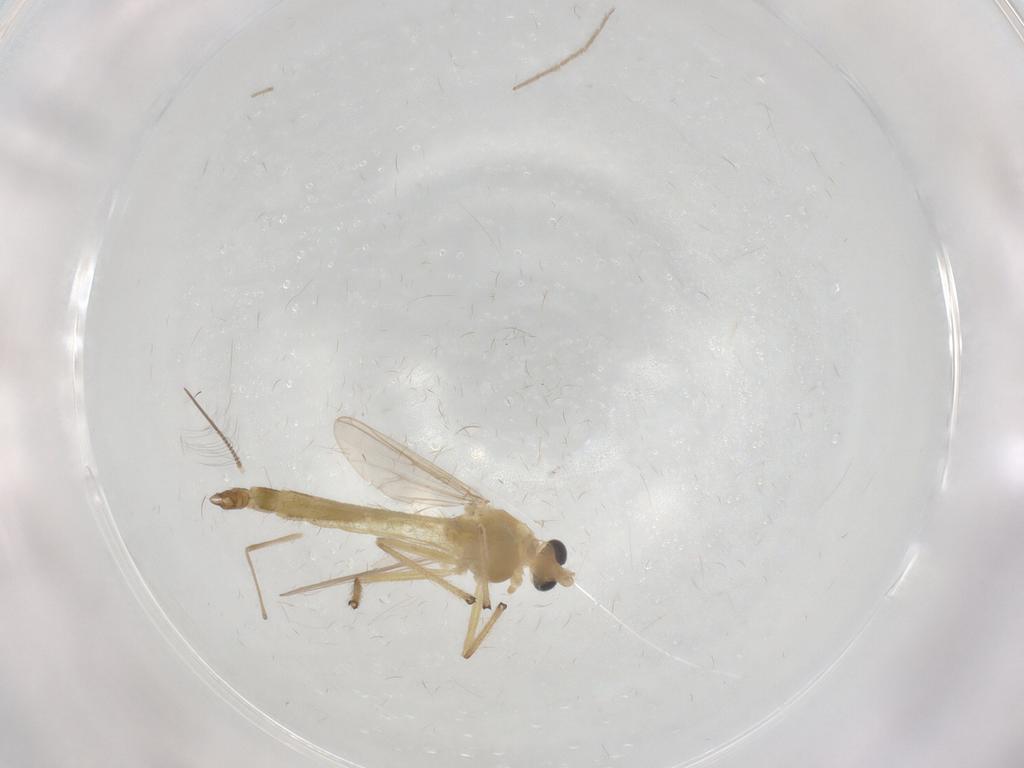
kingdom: Animalia
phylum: Arthropoda
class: Insecta
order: Diptera
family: Chironomidae
